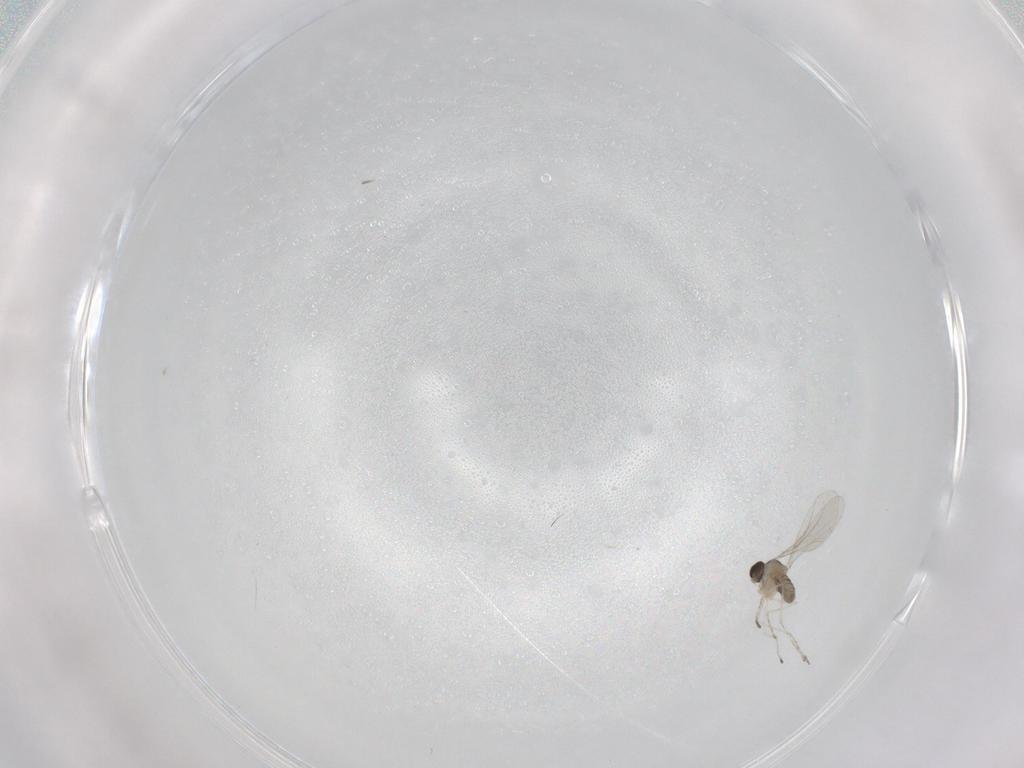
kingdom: Animalia
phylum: Arthropoda
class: Insecta
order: Diptera
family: Cecidomyiidae
